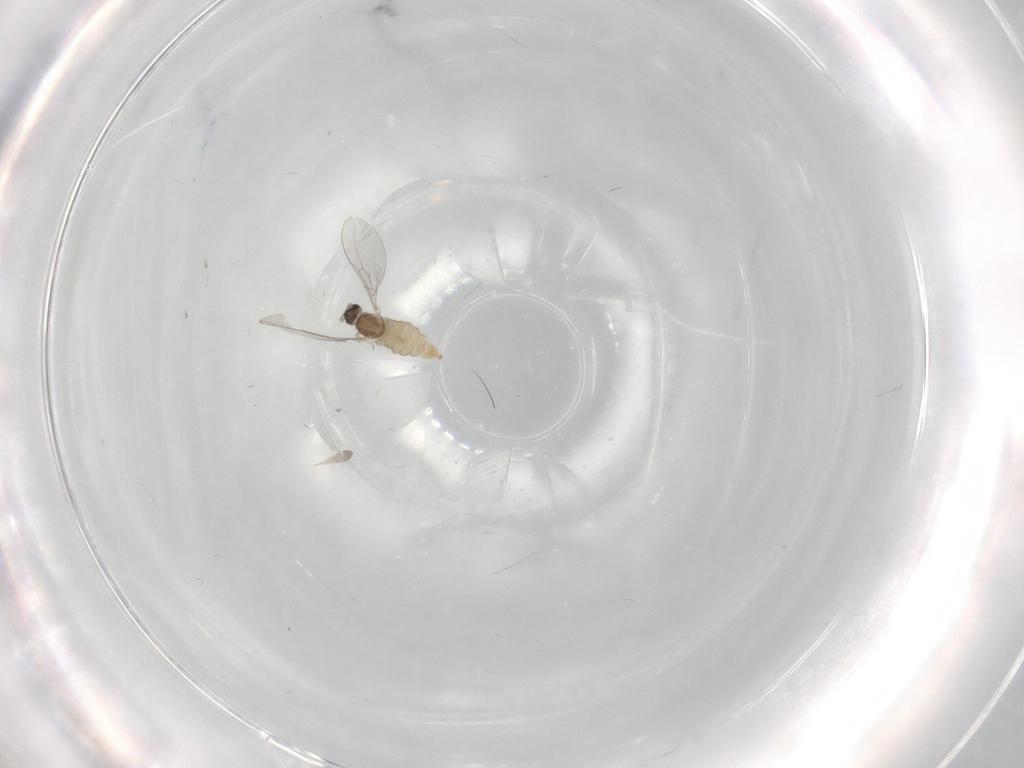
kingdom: Animalia
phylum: Arthropoda
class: Insecta
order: Diptera
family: Cecidomyiidae
